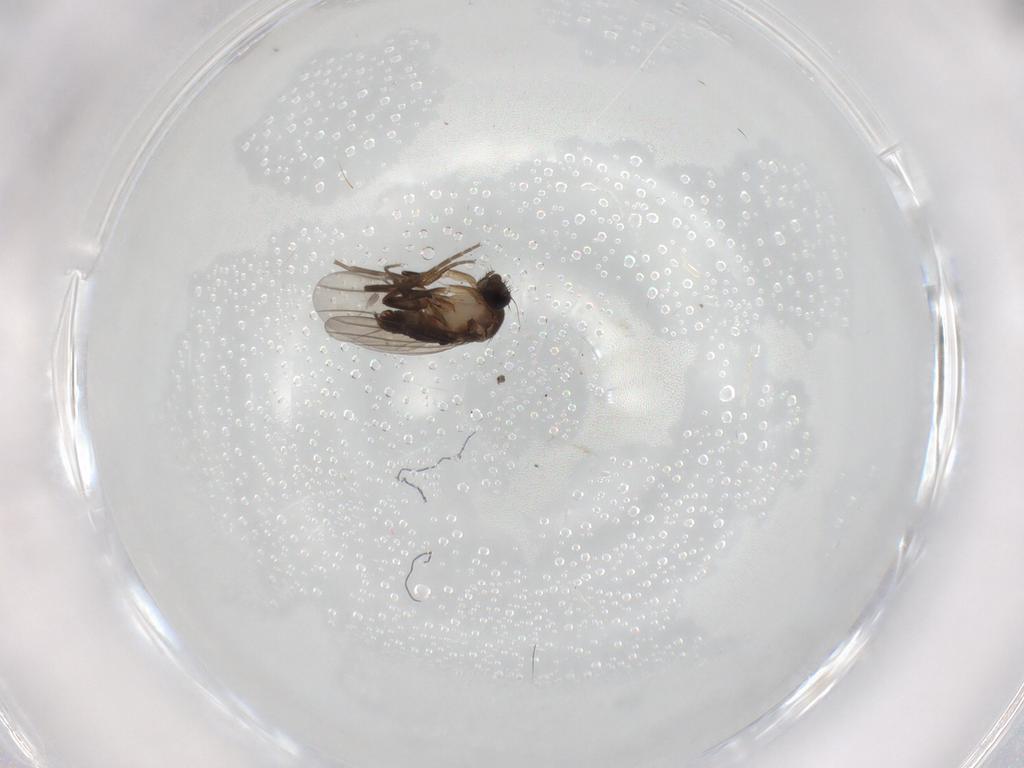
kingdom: Animalia
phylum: Arthropoda
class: Insecta
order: Diptera
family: Phoridae
